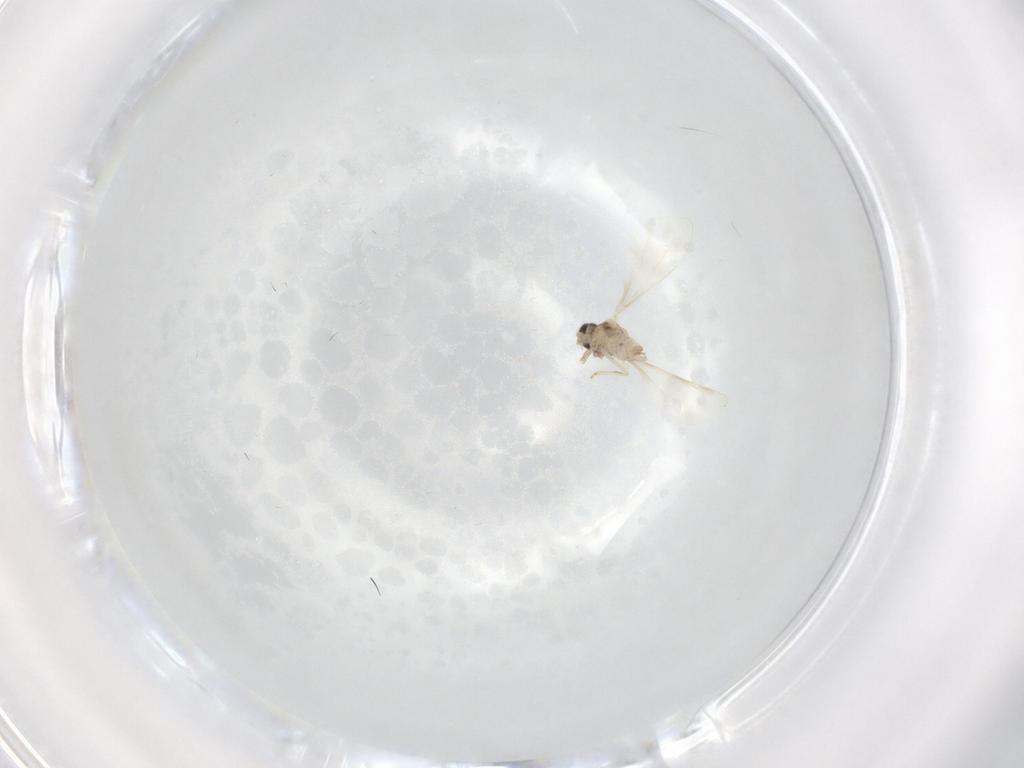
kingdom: Animalia
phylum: Arthropoda
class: Insecta
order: Diptera
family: Cecidomyiidae
